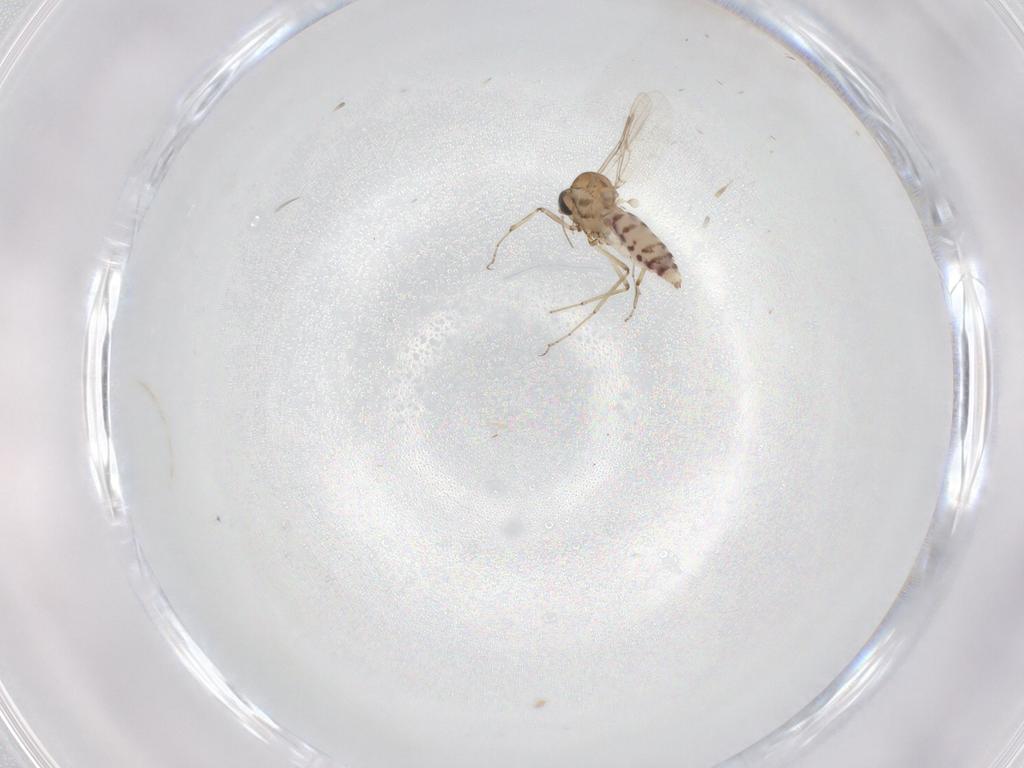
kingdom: Animalia
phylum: Arthropoda
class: Insecta
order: Diptera
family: Ceratopogonidae
